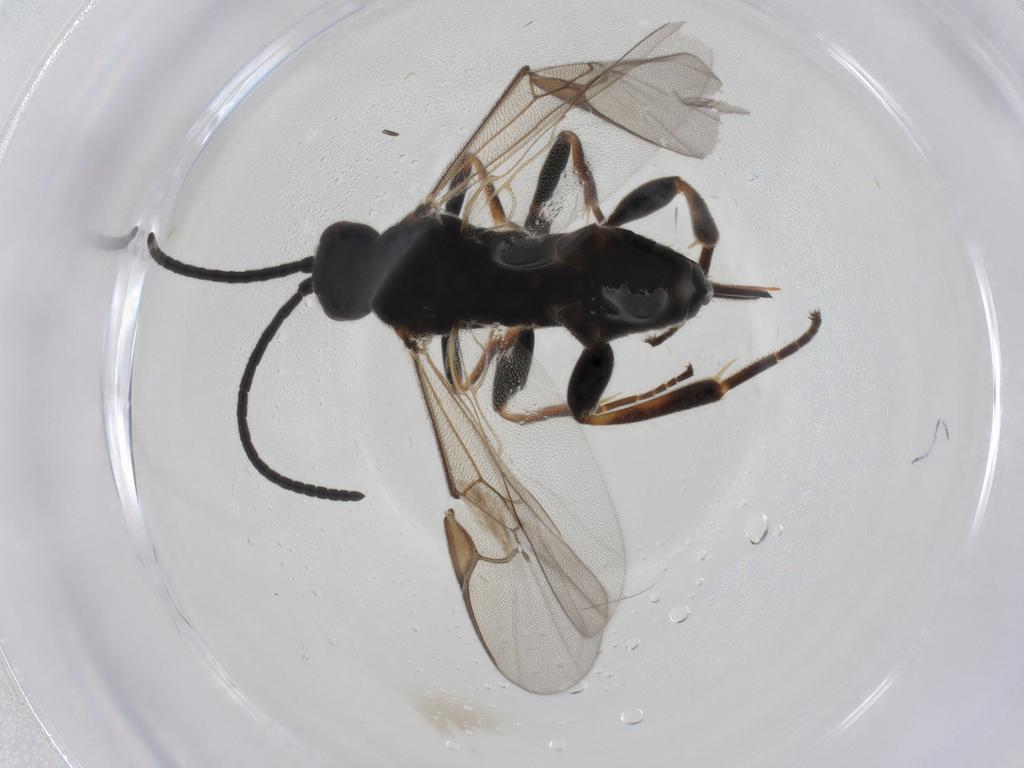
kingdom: Animalia
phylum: Arthropoda
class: Insecta
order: Hymenoptera
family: Braconidae
